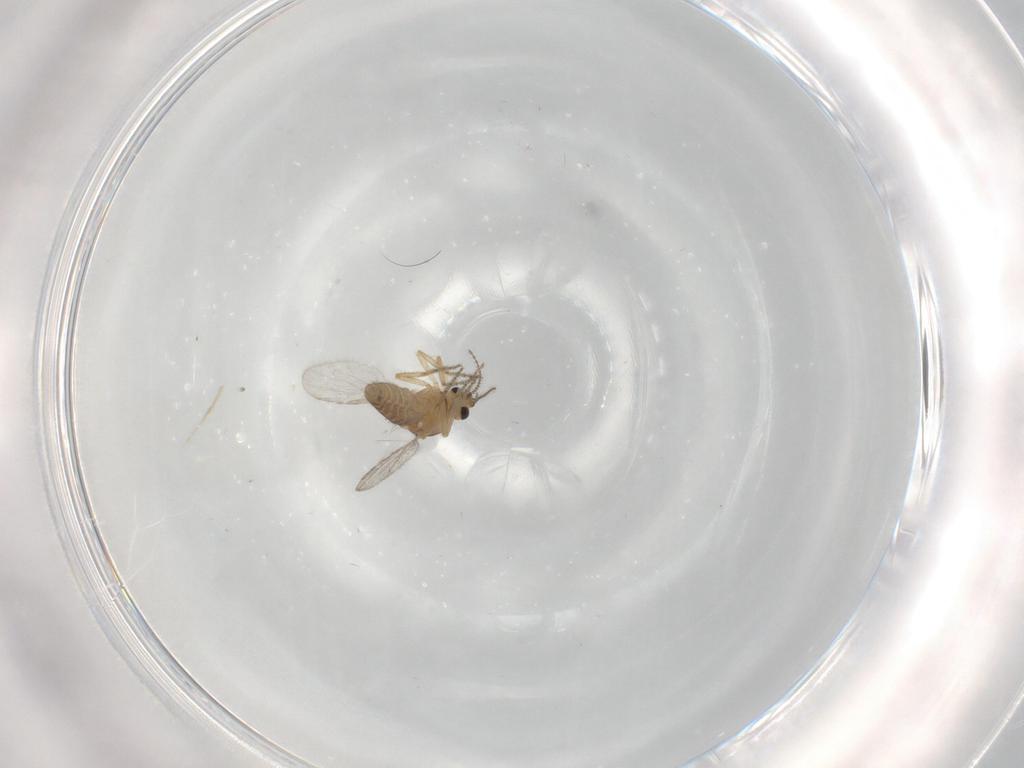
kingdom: Animalia
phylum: Arthropoda
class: Insecta
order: Diptera
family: Ceratopogonidae
